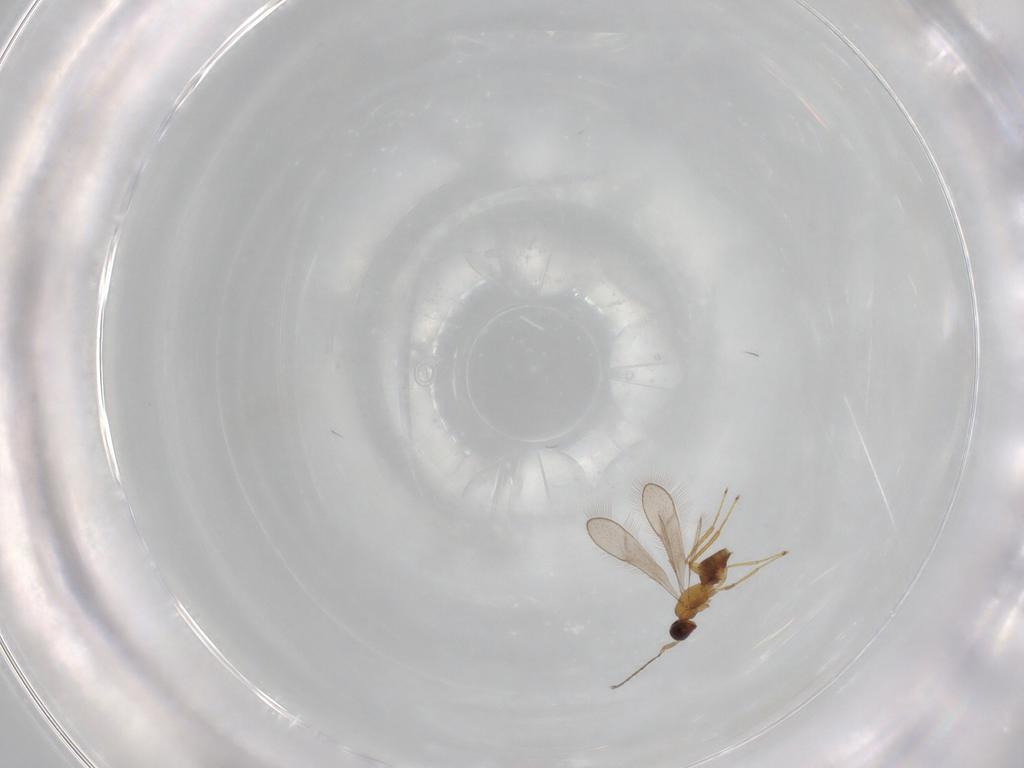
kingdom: Animalia
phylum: Arthropoda
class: Insecta
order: Hymenoptera
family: Mymaridae
